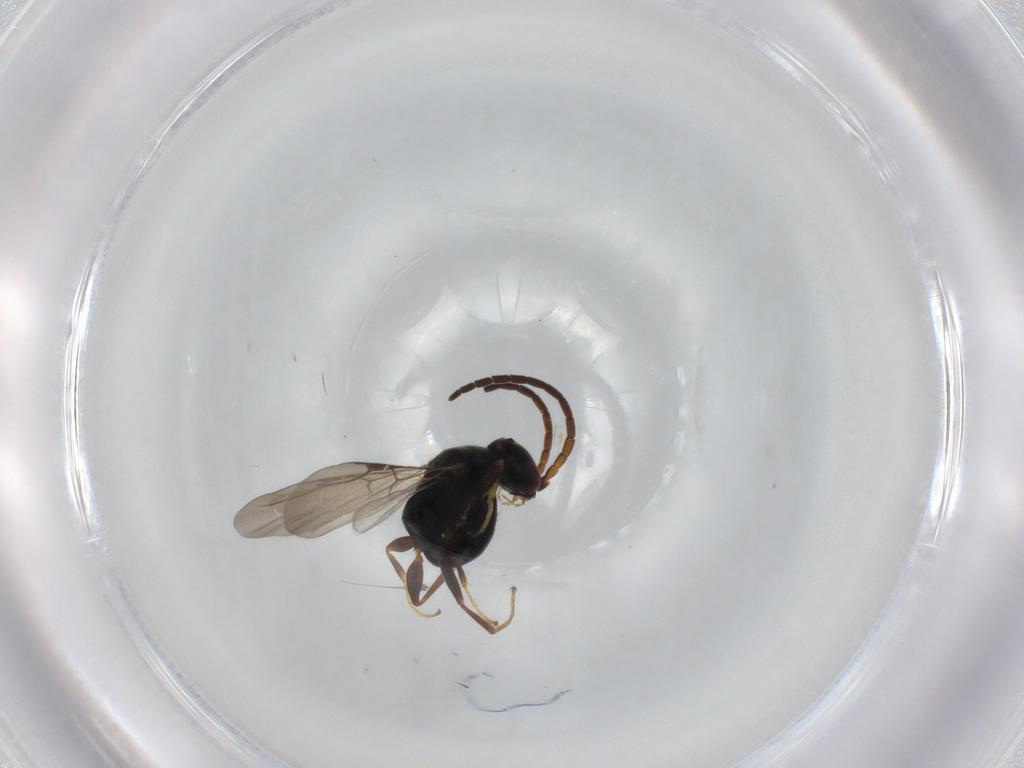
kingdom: Animalia
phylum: Arthropoda
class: Insecta
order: Hymenoptera
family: Bethylidae
